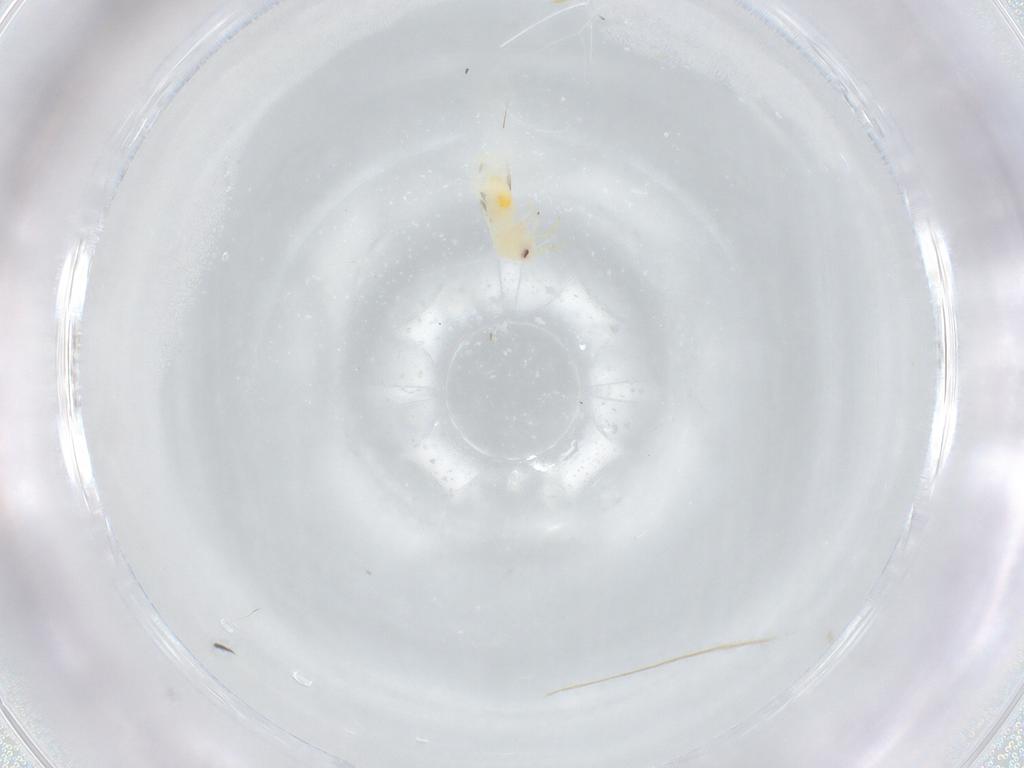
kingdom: Animalia
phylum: Arthropoda
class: Insecta
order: Hemiptera
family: Aleyrodidae
